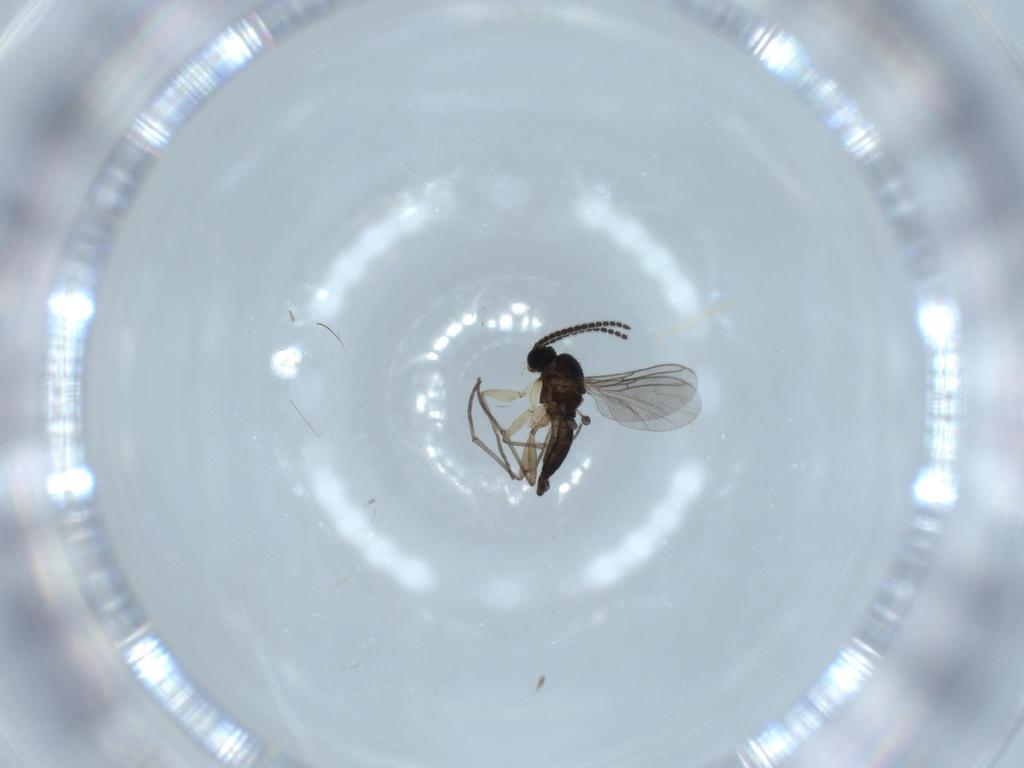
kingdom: Animalia
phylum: Arthropoda
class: Insecta
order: Diptera
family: Sciaridae
